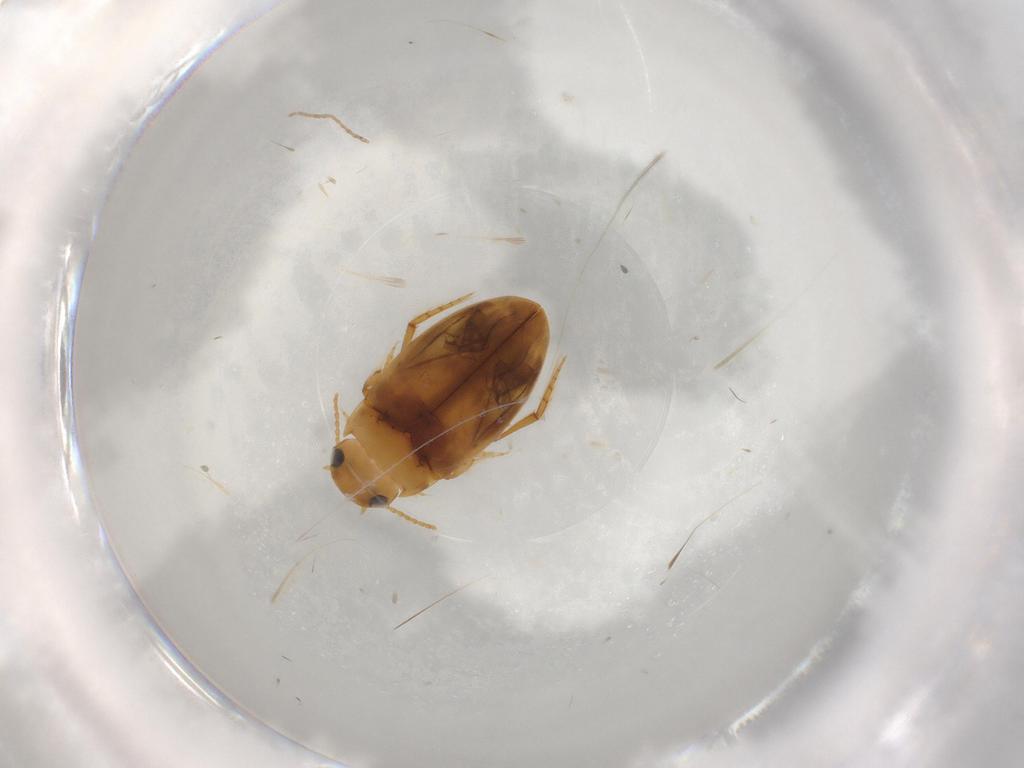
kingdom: Animalia
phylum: Arthropoda
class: Insecta
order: Coleoptera
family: Dytiscidae
